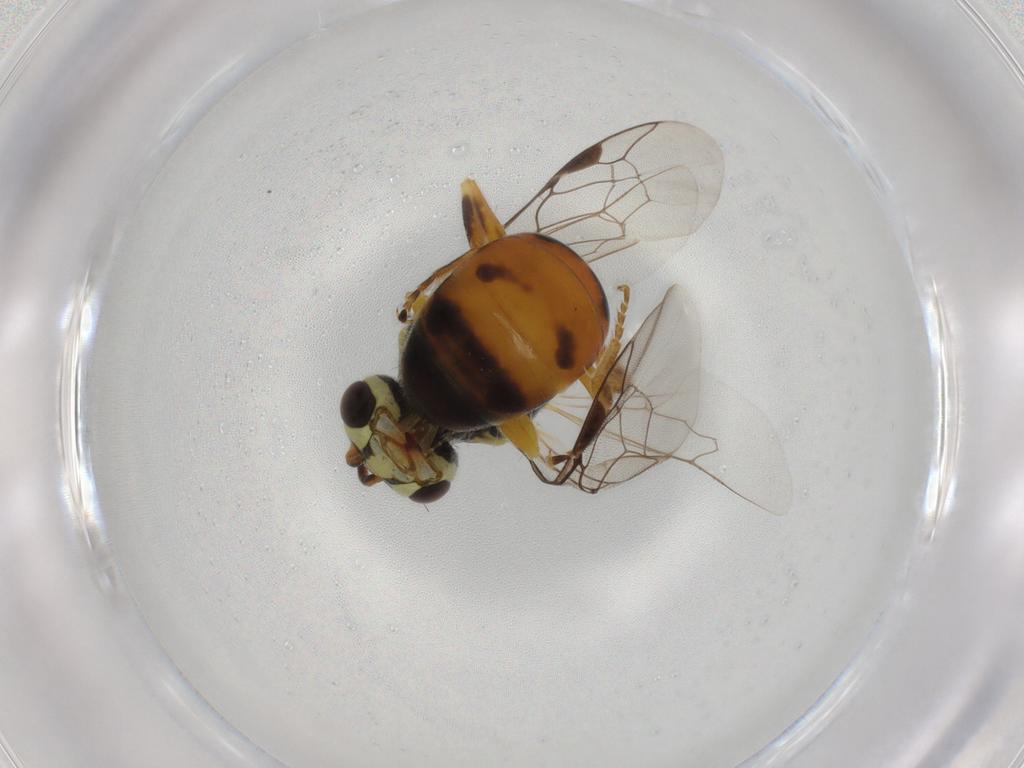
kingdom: Animalia
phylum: Arthropoda
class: Insecta
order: Hymenoptera
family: Colletidae
